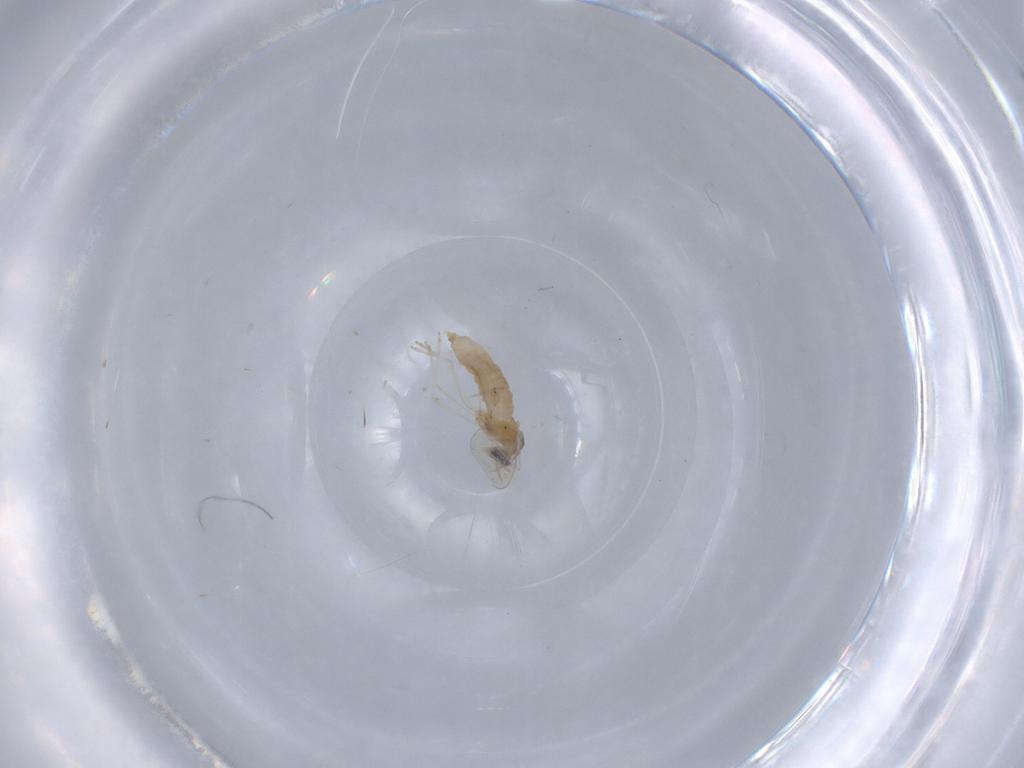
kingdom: Animalia
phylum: Arthropoda
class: Insecta
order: Diptera
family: Cecidomyiidae
